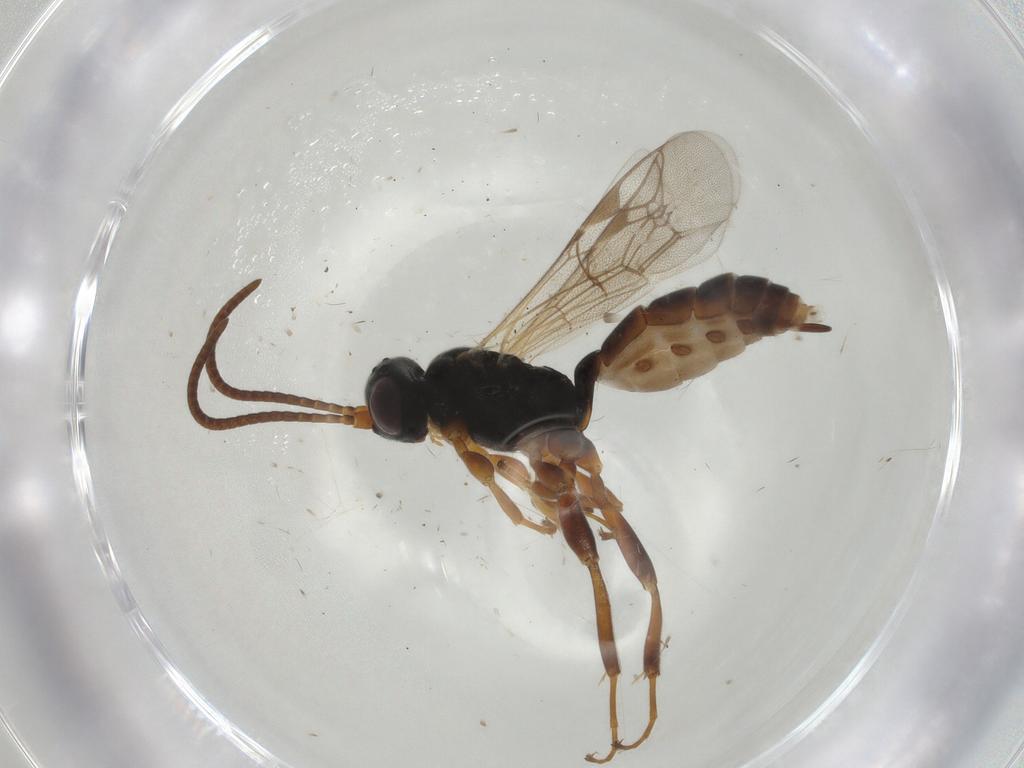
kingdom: Animalia
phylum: Arthropoda
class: Insecta
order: Hymenoptera
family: Ichneumonidae
